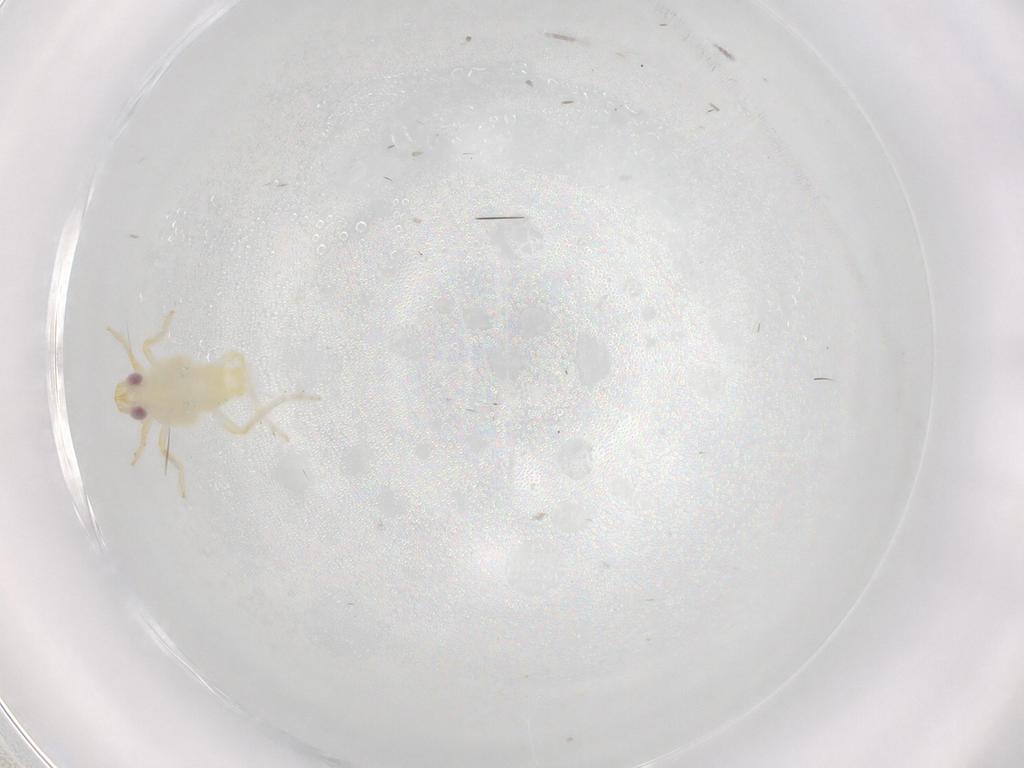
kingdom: Animalia
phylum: Arthropoda
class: Insecta
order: Hemiptera
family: Tropiduchidae
